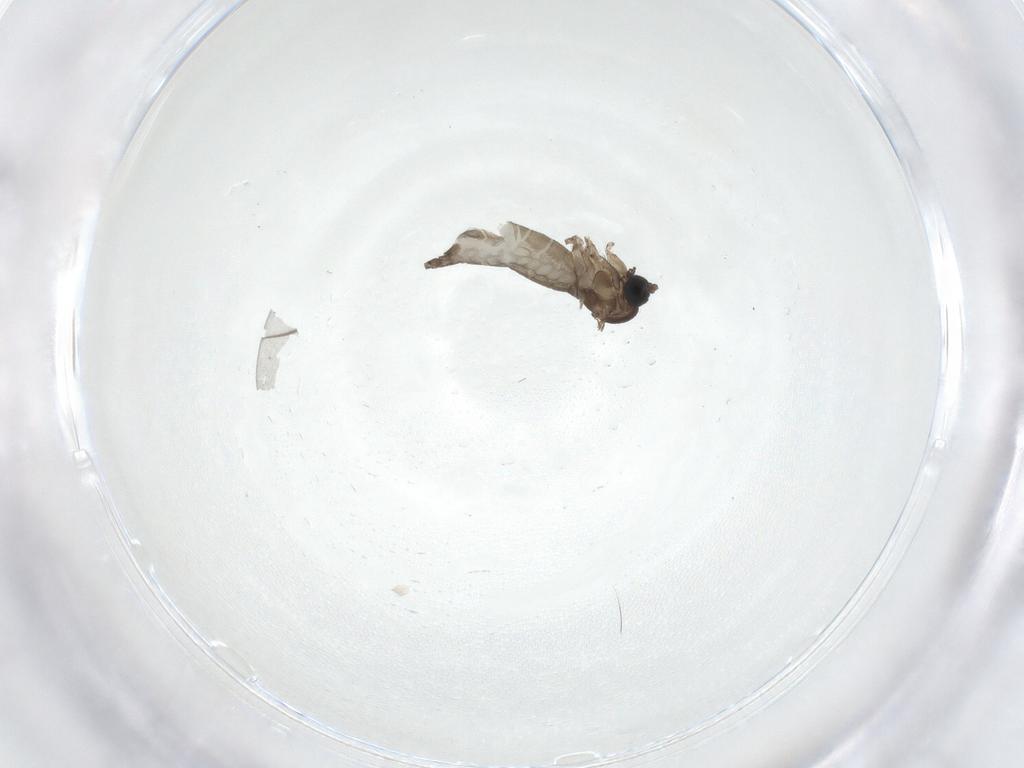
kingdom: Animalia
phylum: Arthropoda
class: Insecta
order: Diptera
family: Sciaridae
